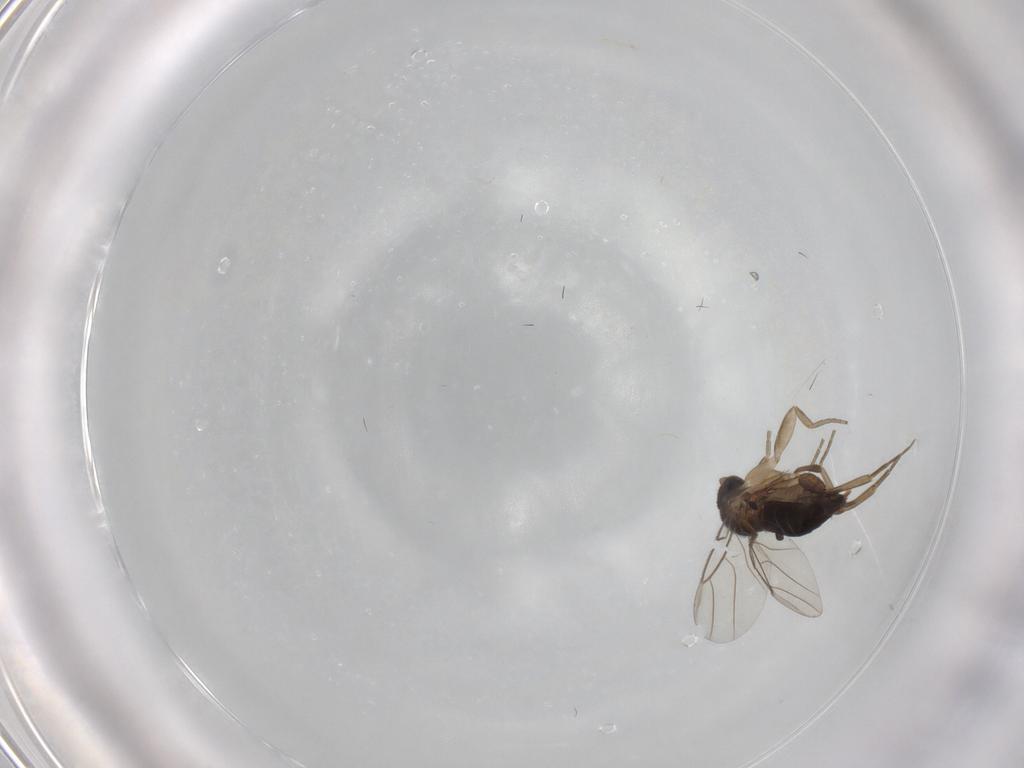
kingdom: Animalia
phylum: Arthropoda
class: Insecta
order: Diptera
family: Phoridae
